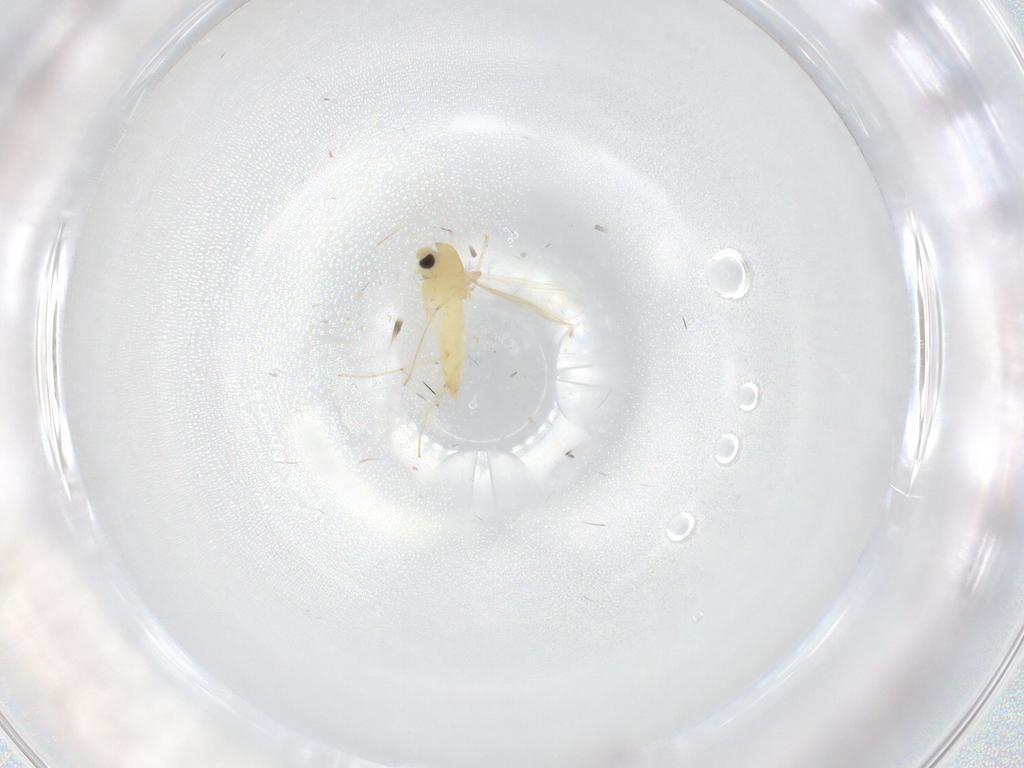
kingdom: Animalia
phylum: Arthropoda
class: Insecta
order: Diptera
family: Chironomidae
